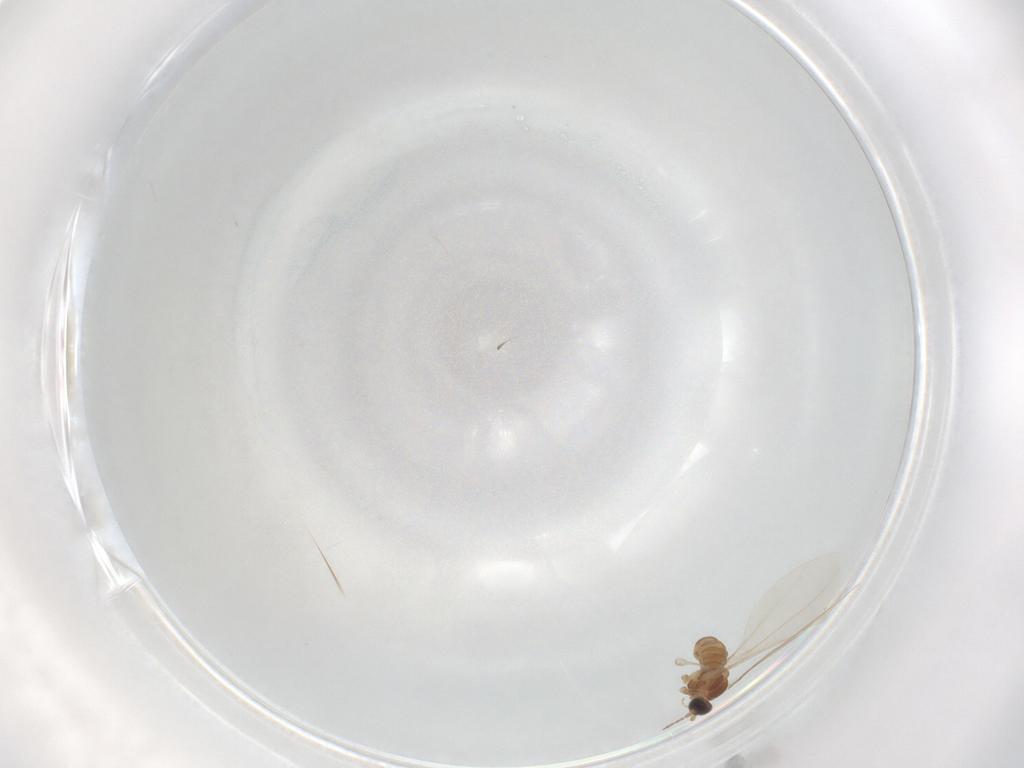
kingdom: Animalia
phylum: Arthropoda
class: Insecta
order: Diptera
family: Cecidomyiidae
